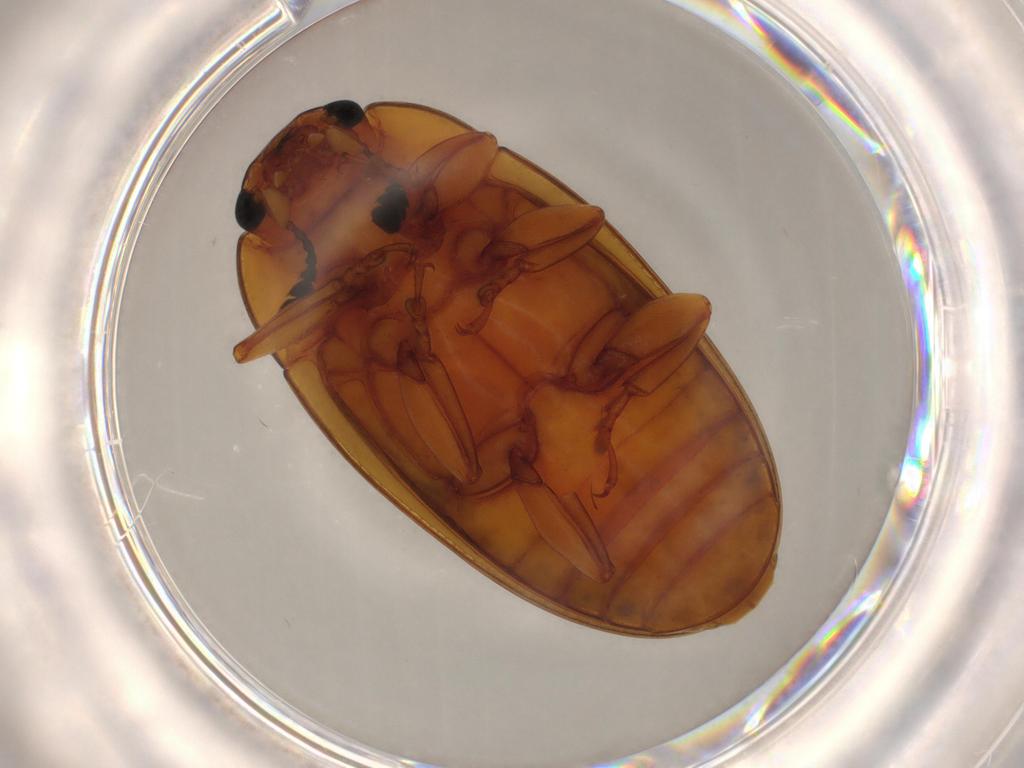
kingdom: Animalia
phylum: Arthropoda
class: Insecta
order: Coleoptera
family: Erotylidae
